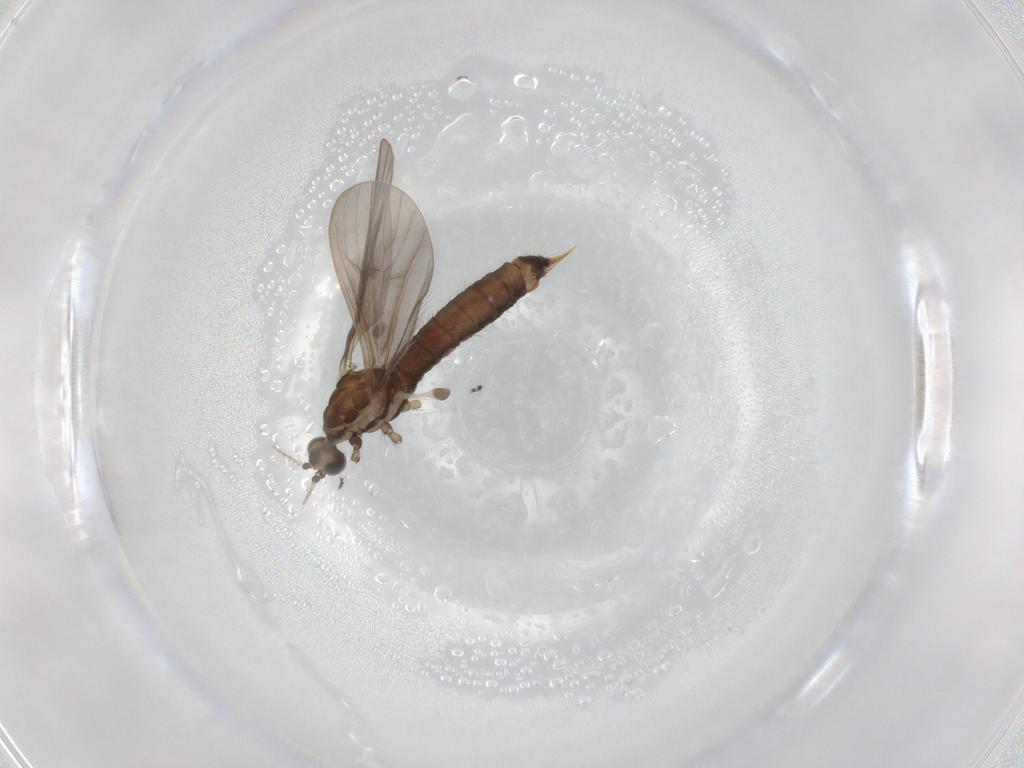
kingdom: Animalia
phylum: Arthropoda
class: Insecta
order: Diptera
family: Limoniidae
